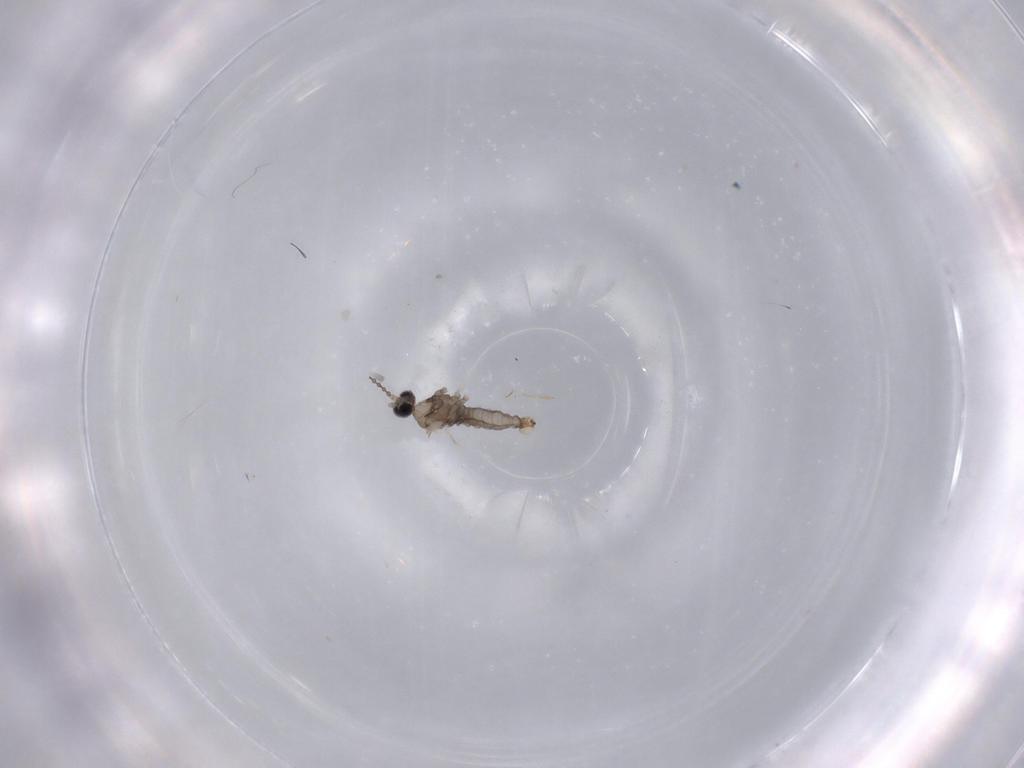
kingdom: Animalia
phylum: Arthropoda
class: Insecta
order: Diptera
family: Cecidomyiidae
